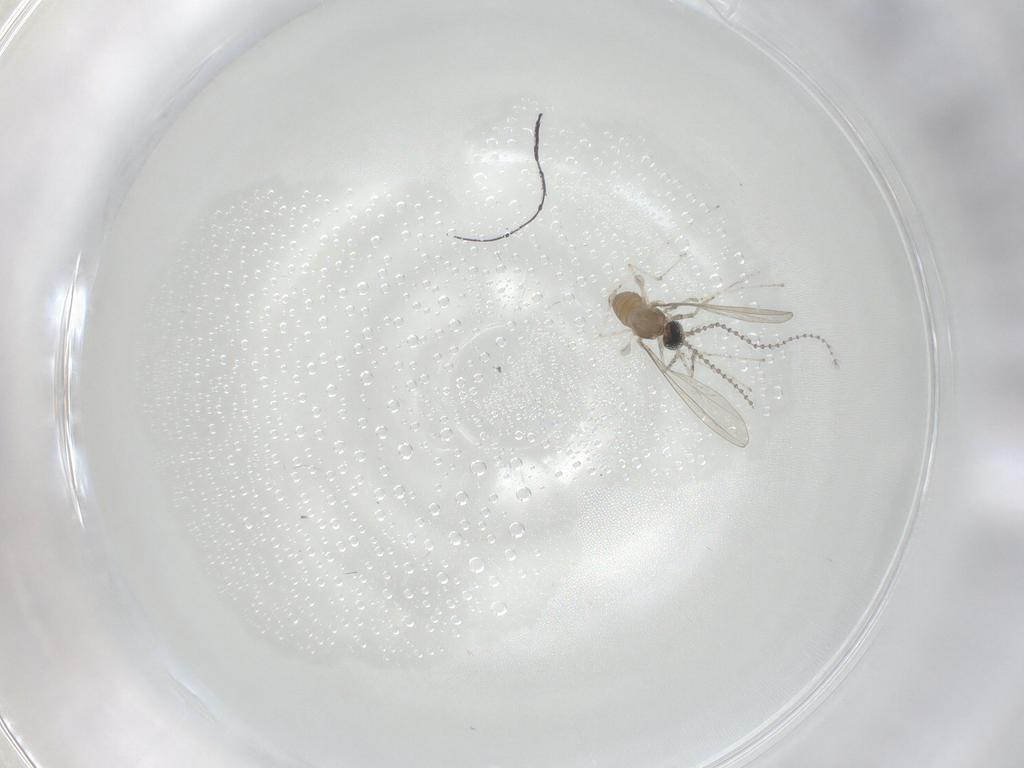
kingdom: Animalia
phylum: Arthropoda
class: Insecta
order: Diptera
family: Cecidomyiidae
